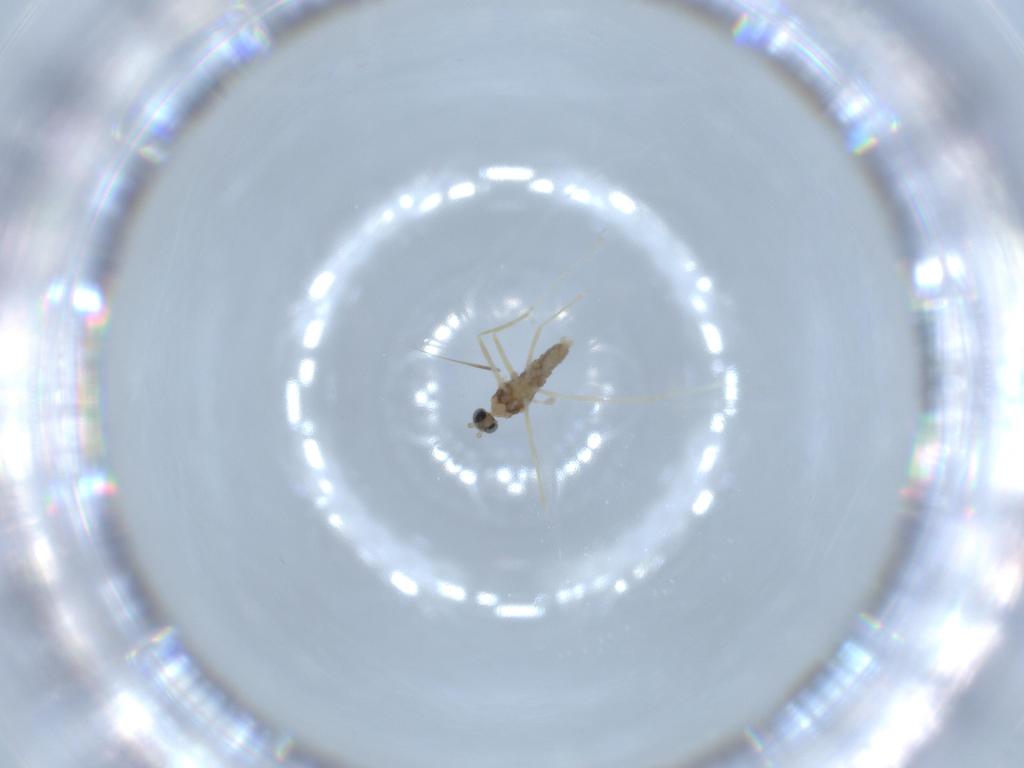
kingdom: Animalia
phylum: Arthropoda
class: Insecta
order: Diptera
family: Cecidomyiidae
